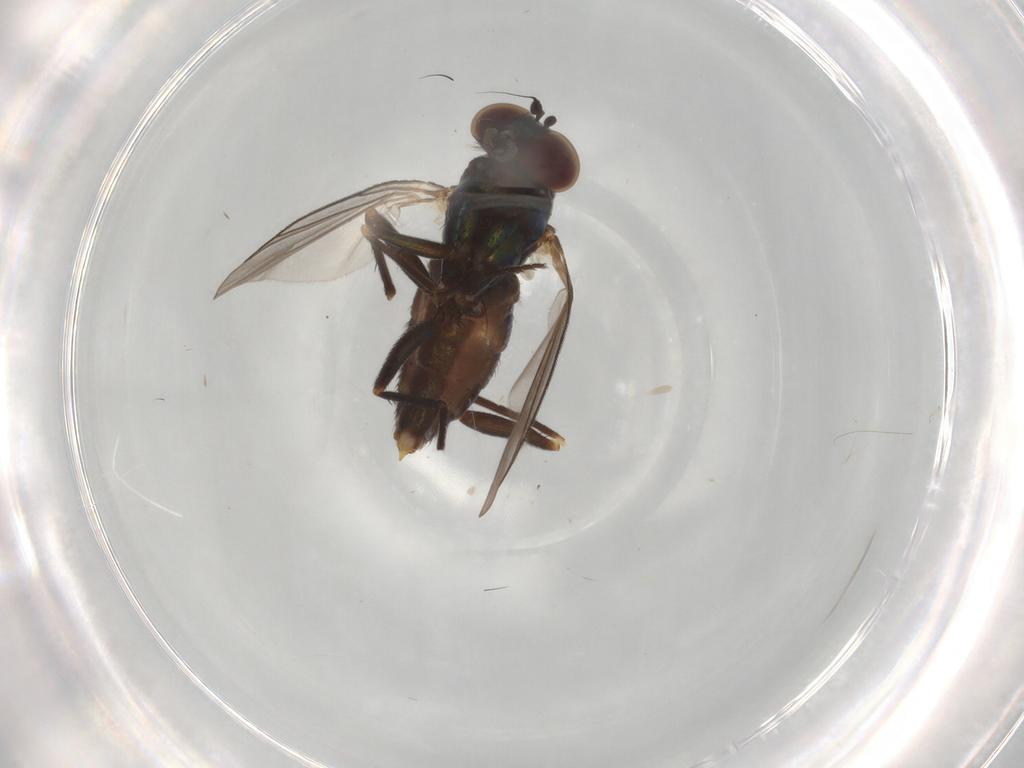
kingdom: Animalia
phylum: Arthropoda
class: Insecta
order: Diptera
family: Dolichopodidae
